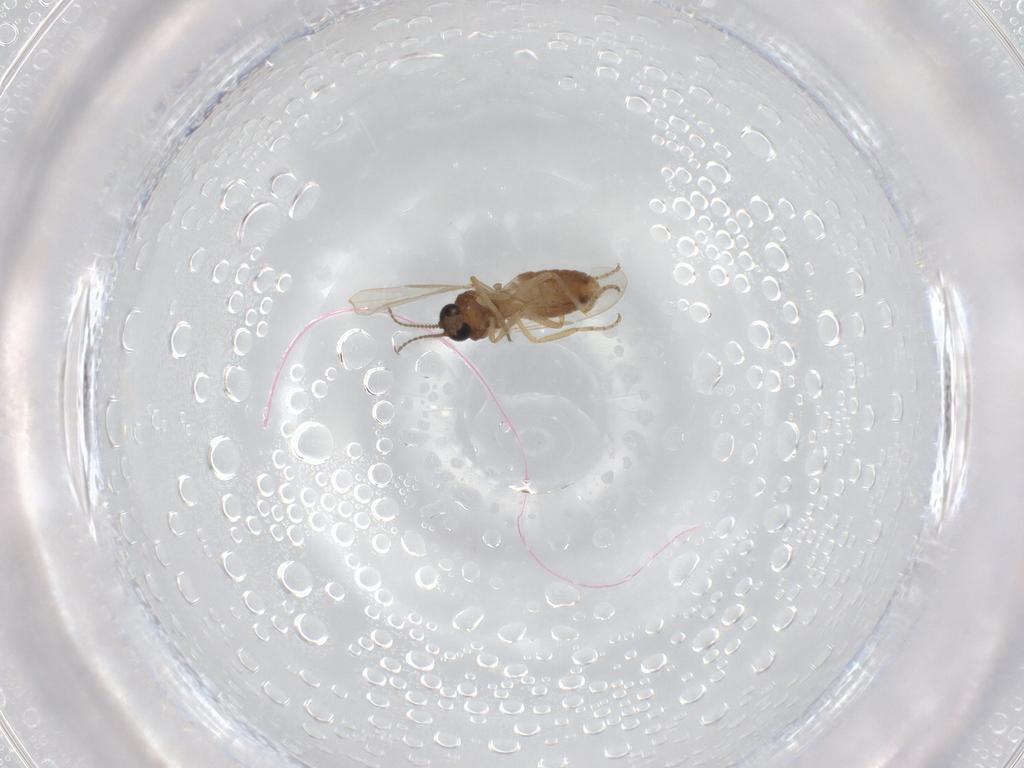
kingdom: Animalia
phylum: Arthropoda
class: Insecta
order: Diptera
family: Ceratopogonidae
